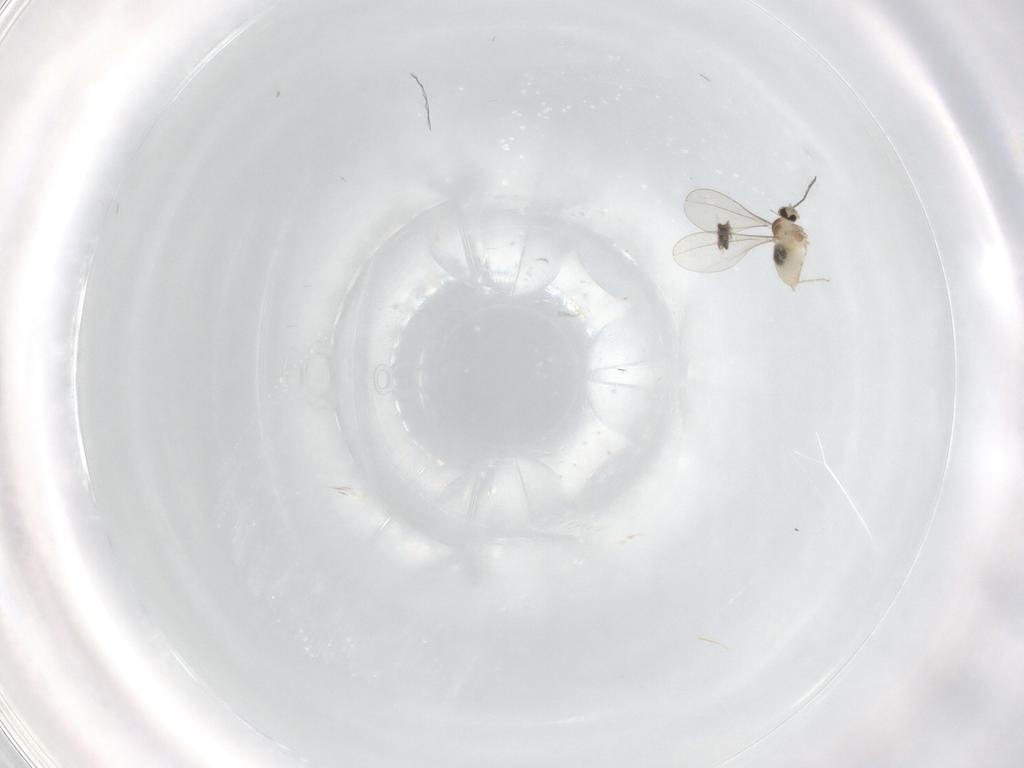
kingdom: Animalia
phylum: Arthropoda
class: Insecta
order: Diptera
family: Cecidomyiidae
